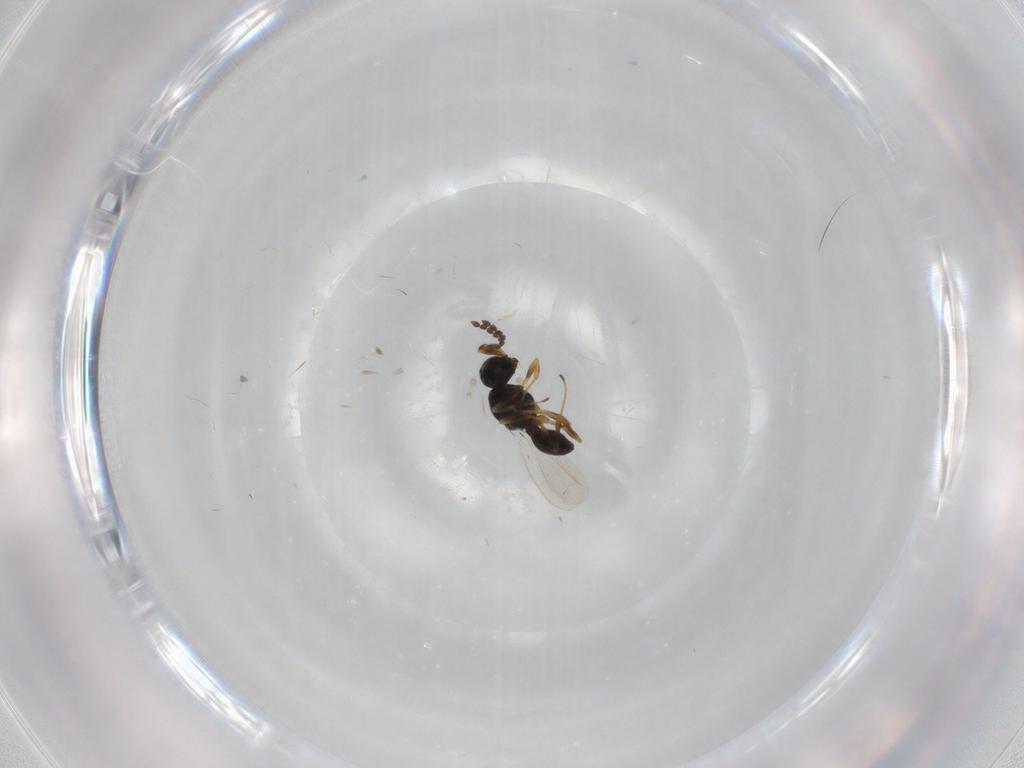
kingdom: Animalia
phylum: Arthropoda
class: Insecta
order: Hymenoptera
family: Platygastridae
